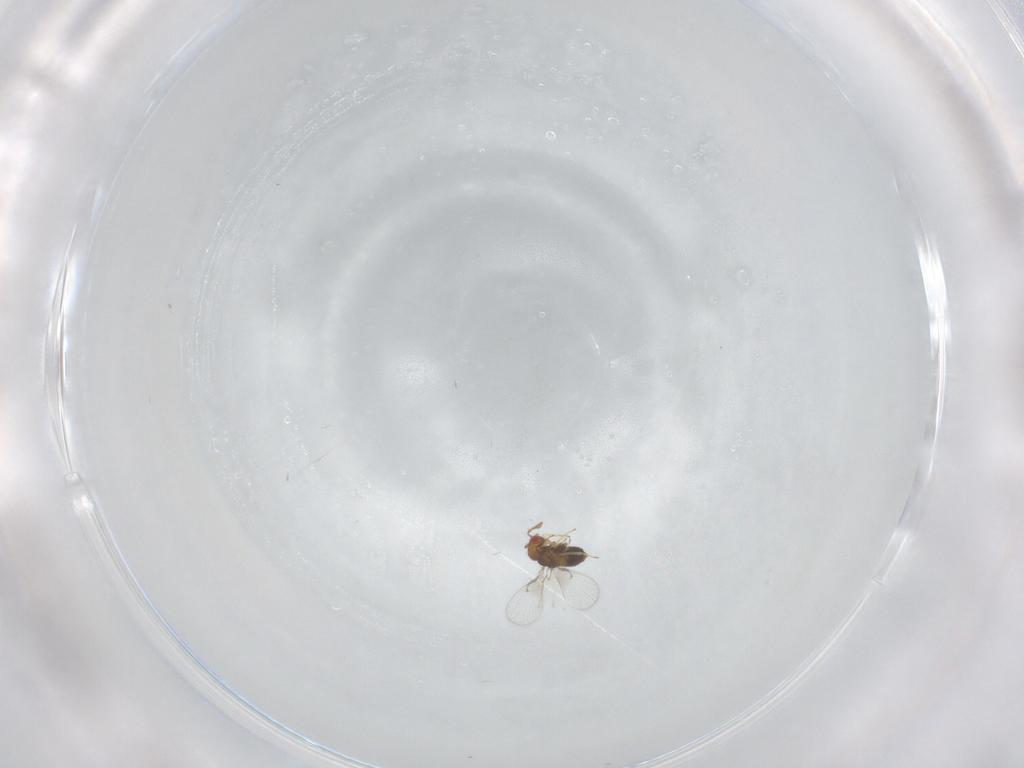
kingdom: Animalia
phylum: Arthropoda
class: Insecta
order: Hymenoptera
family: Trichogrammatidae
